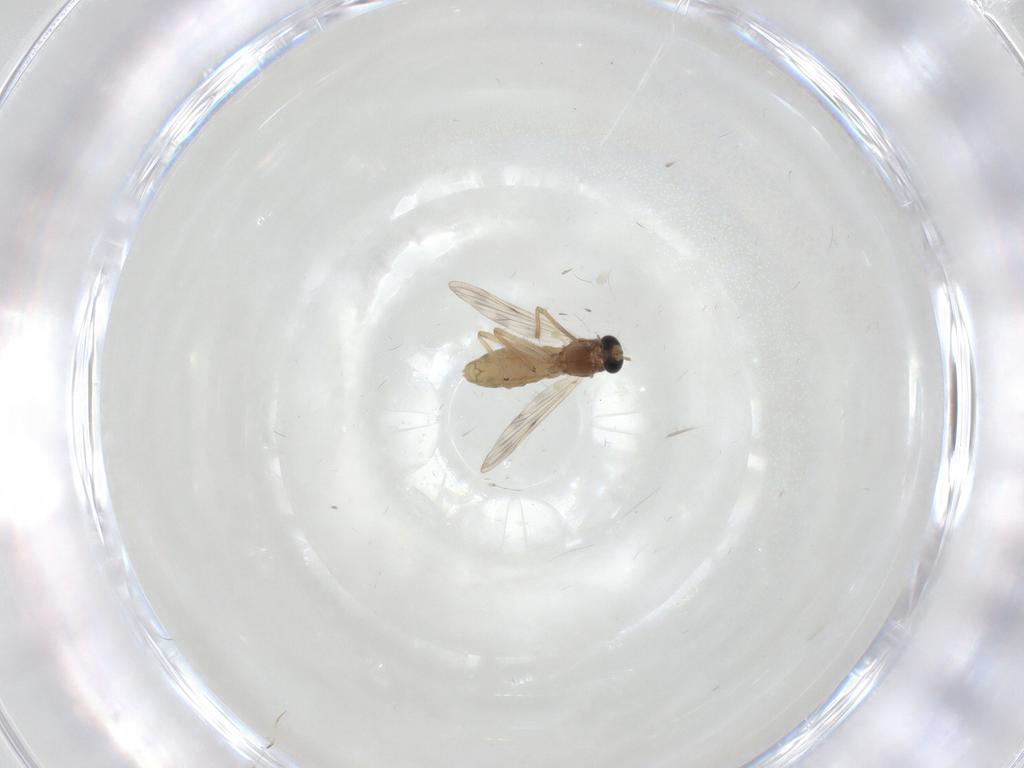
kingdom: Animalia
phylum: Arthropoda
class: Insecta
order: Diptera
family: Chironomidae
